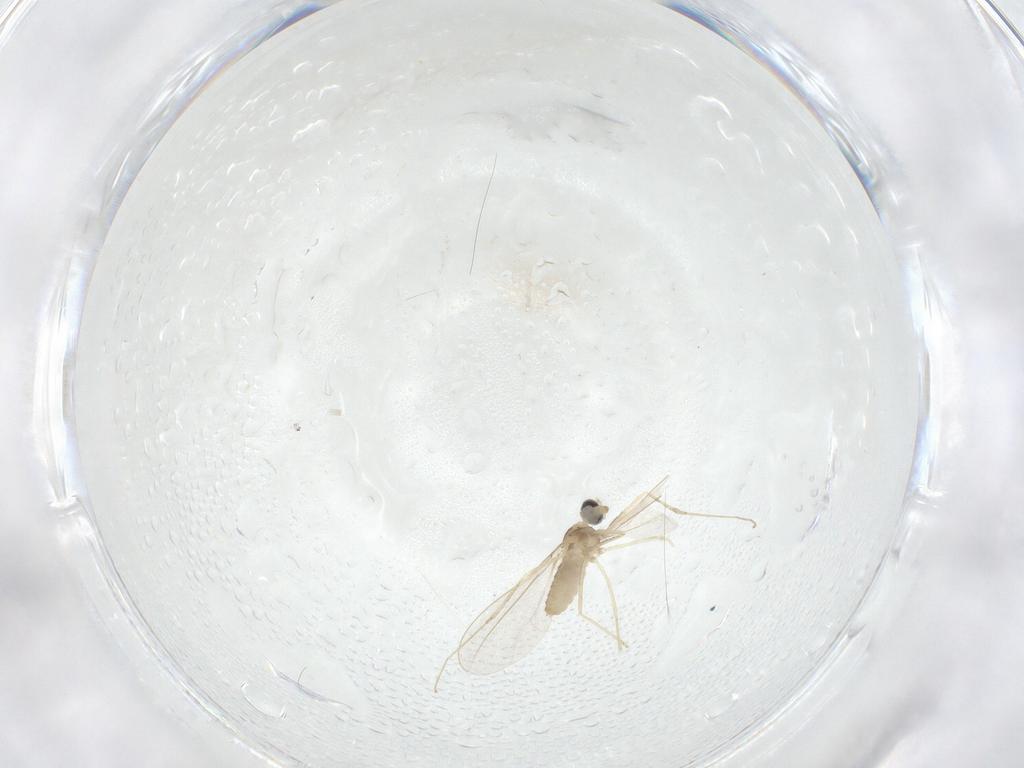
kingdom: Animalia
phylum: Arthropoda
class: Insecta
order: Diptera
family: Cecidomyiidae
